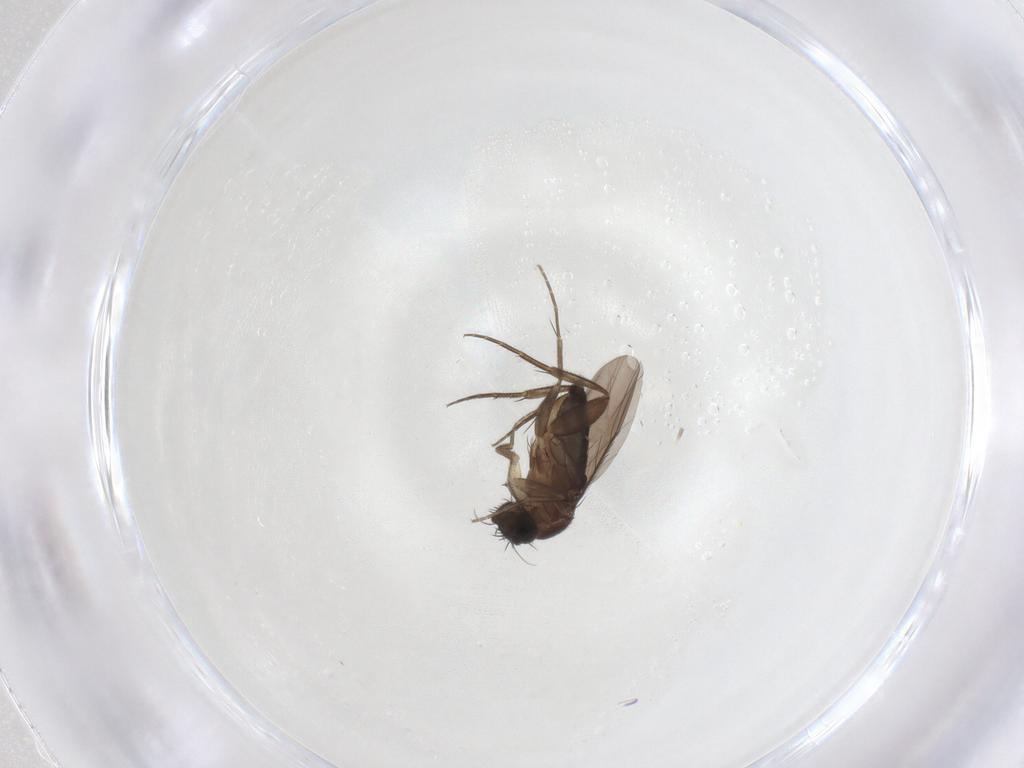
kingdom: Animalia
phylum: Arthropoda
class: Insecta
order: Diptera
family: Phoridae
